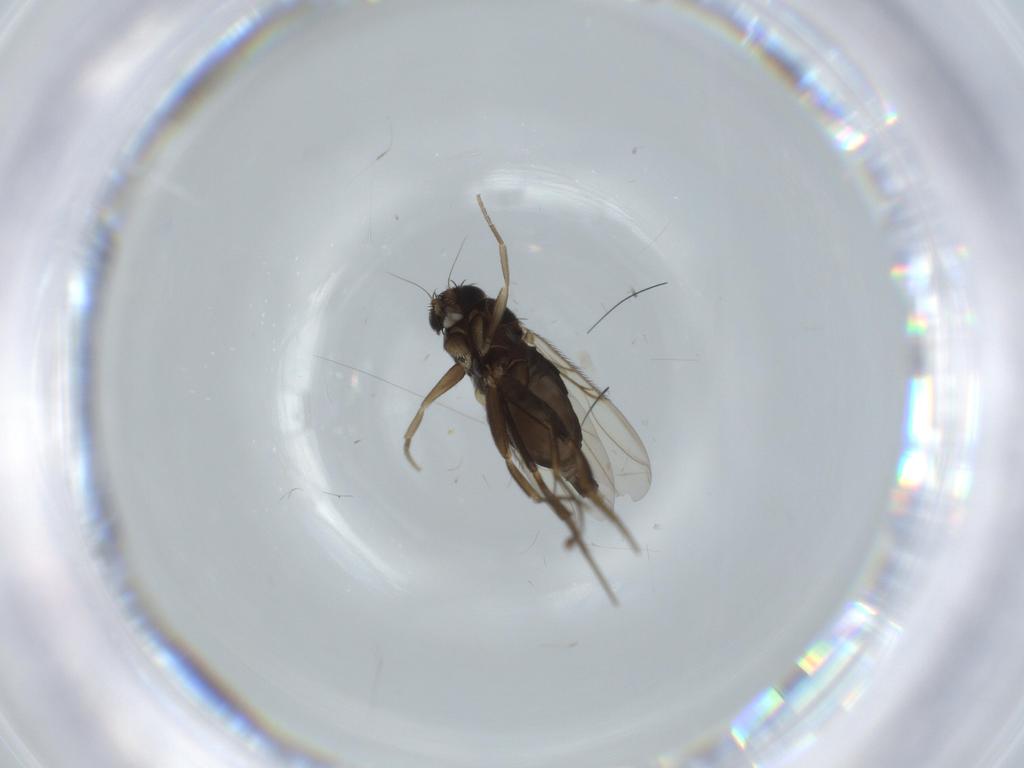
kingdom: Animalia
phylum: Arthropoda
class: Insecta
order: Diptera
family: Phoridae
